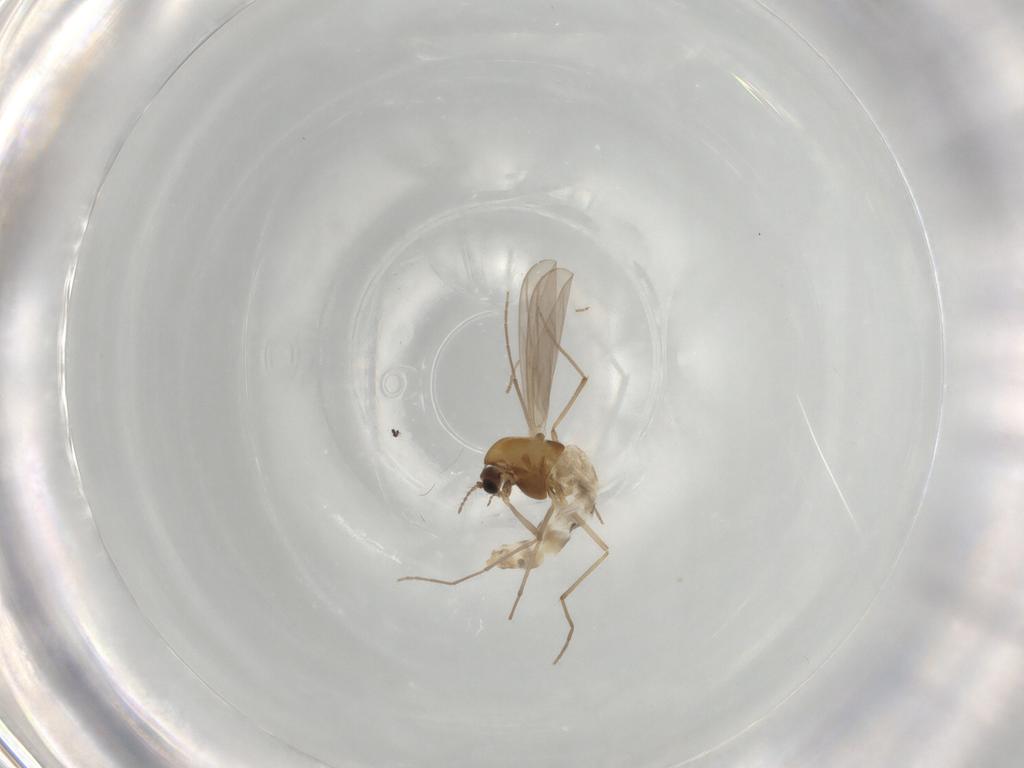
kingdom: Animalia
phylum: Arthropoda
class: Insecta
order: Diptera
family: Chironomidae
